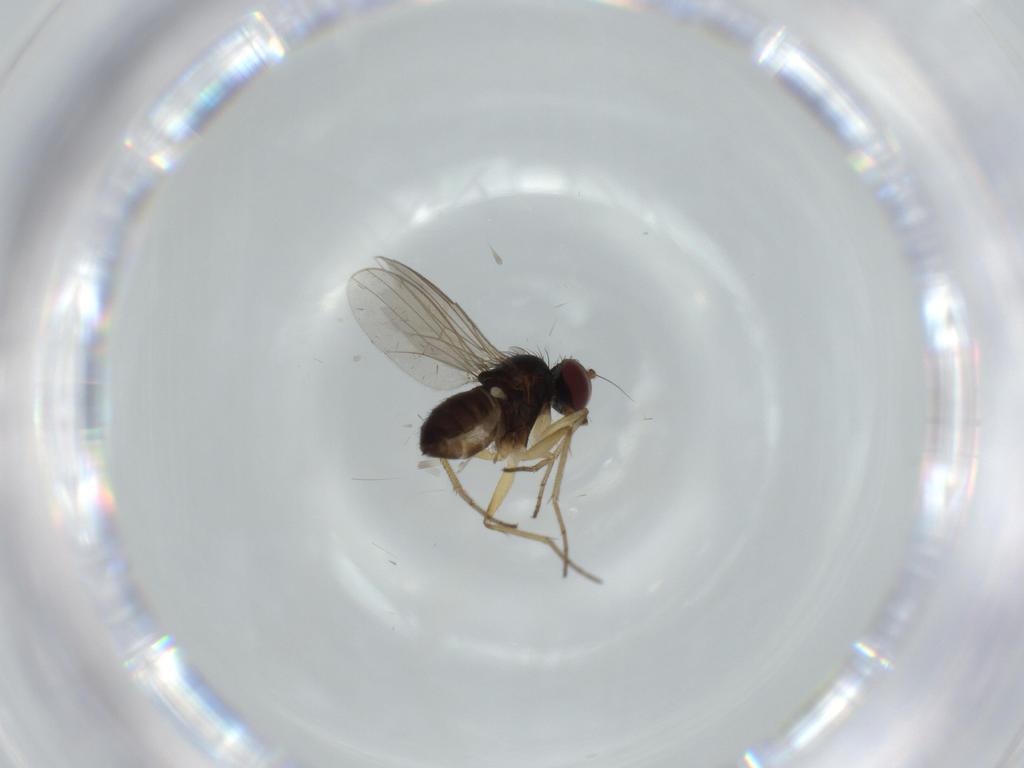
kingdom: Animalia
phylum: Arthropoda
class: Insecta
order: Diptera
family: Dolichopodidae
